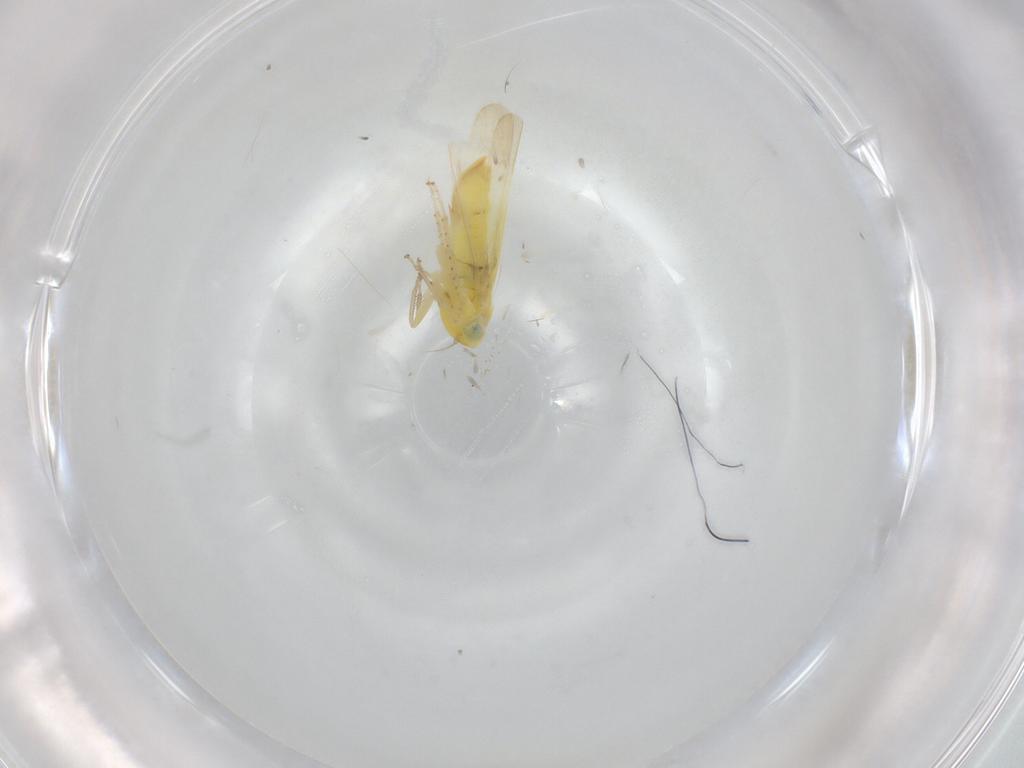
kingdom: Animalia
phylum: Arthropoda
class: Insecta
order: Hemiptera
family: Cicadellidae
